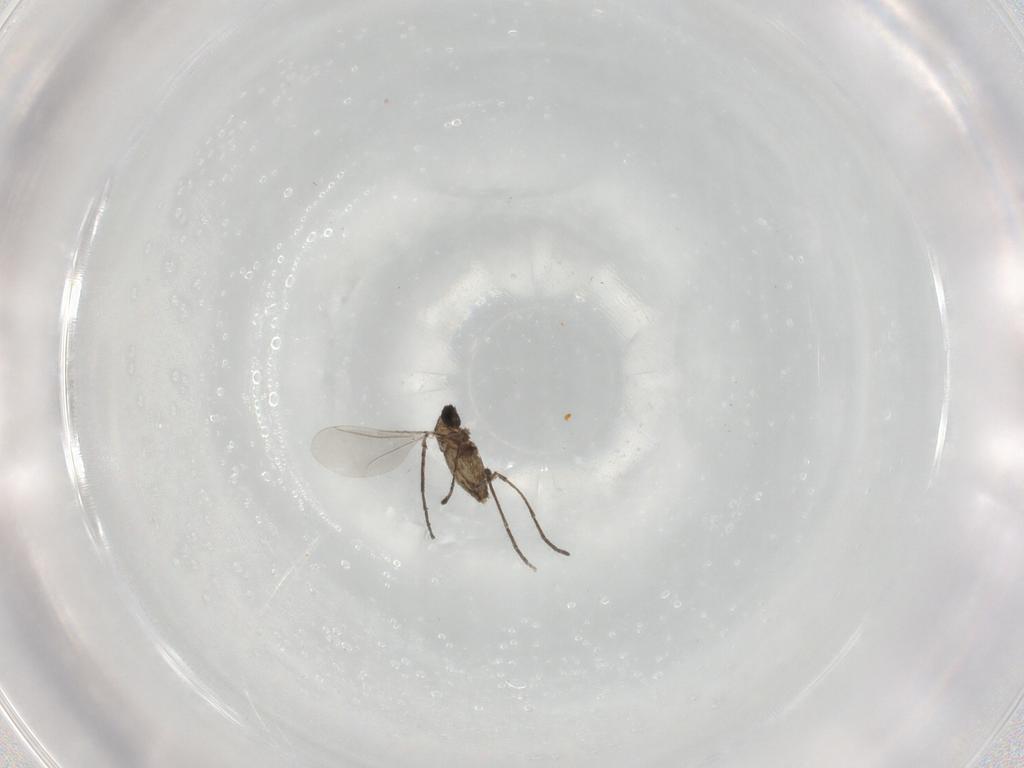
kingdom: Animalia
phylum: Arthropoda
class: Insecta
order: Diptera
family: Cecidomyiidae
